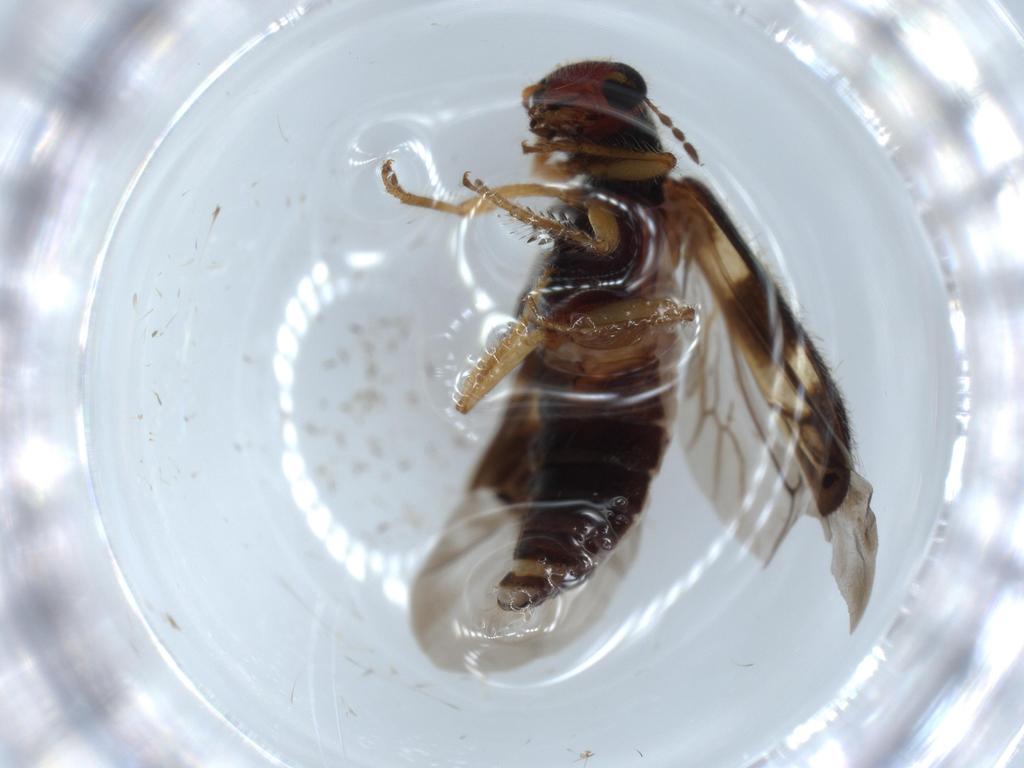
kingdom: Animalia
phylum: Arthropoda
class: Insecta
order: Coleoptera
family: Cleridae
